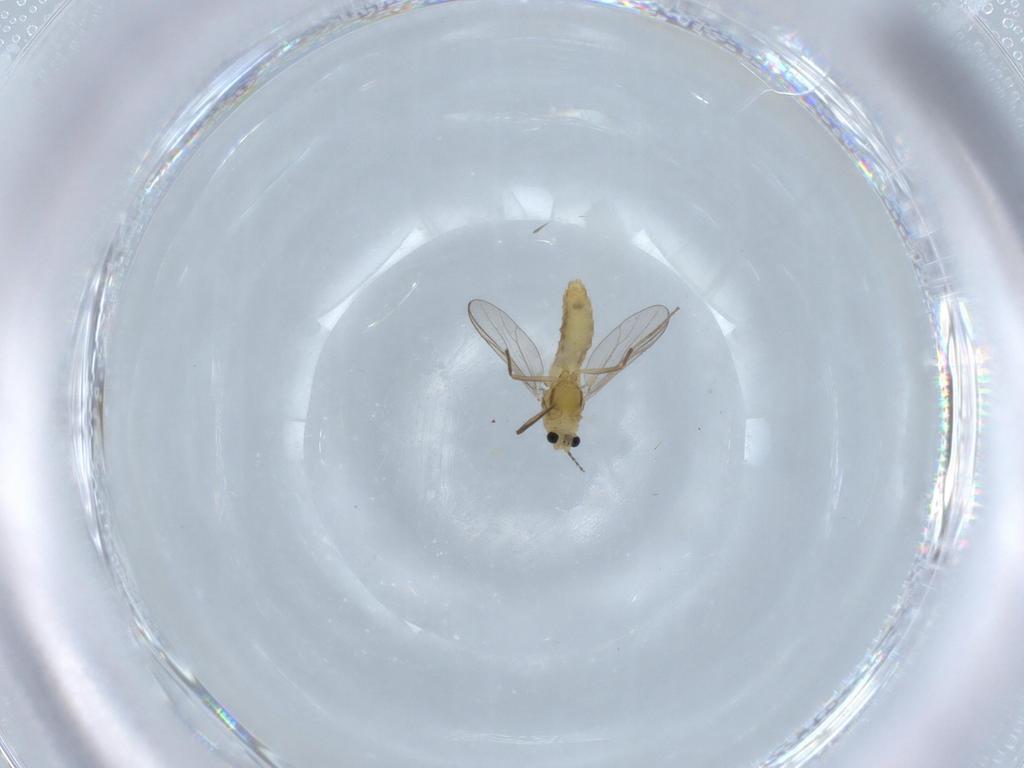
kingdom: Animalia
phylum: Arthropoda
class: Insecta
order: Diptera
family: Chironomidae
